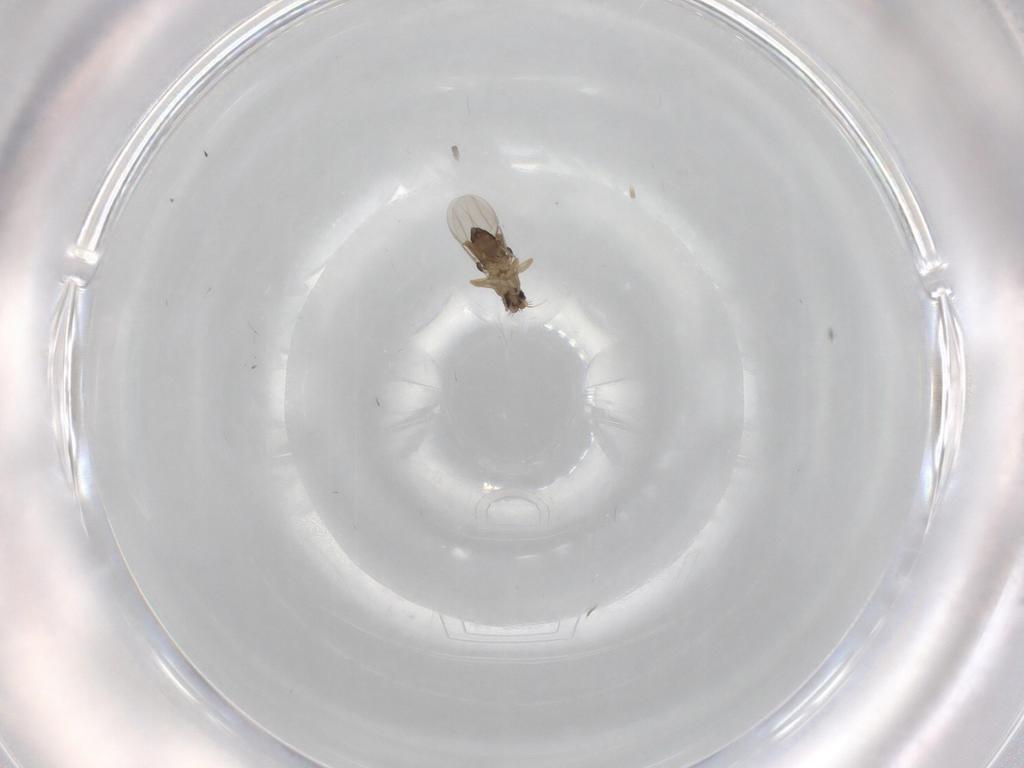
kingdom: Animalia
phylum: Arthropoda
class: Insecta
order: Diptera
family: Phoridae
